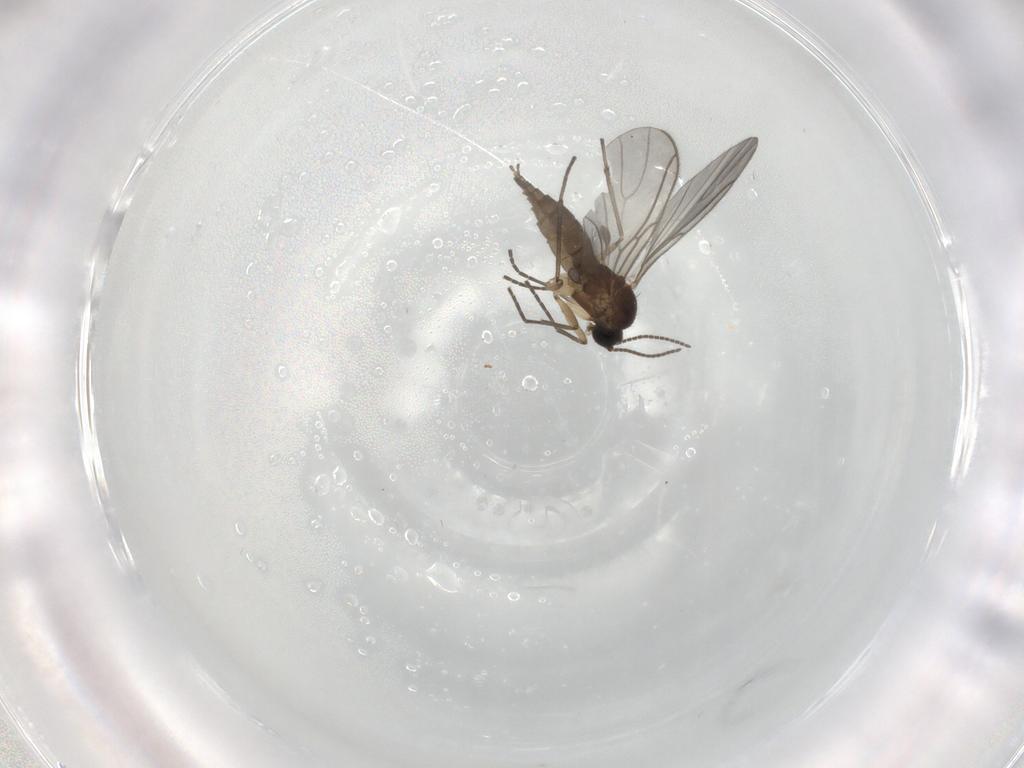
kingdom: Animalia
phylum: Arthropoda
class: Insecta
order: Diptera
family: Sciaridae
